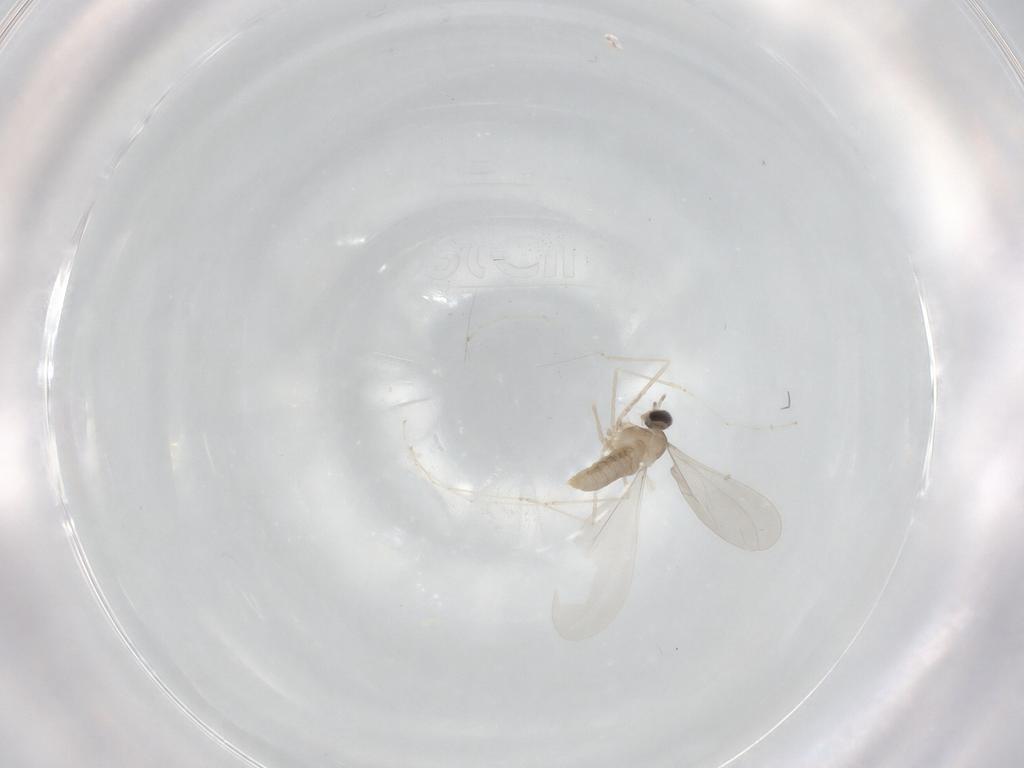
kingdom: Animalia
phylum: Arthropoda
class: Insecta
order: Diptera
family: Cecidomyiidae
